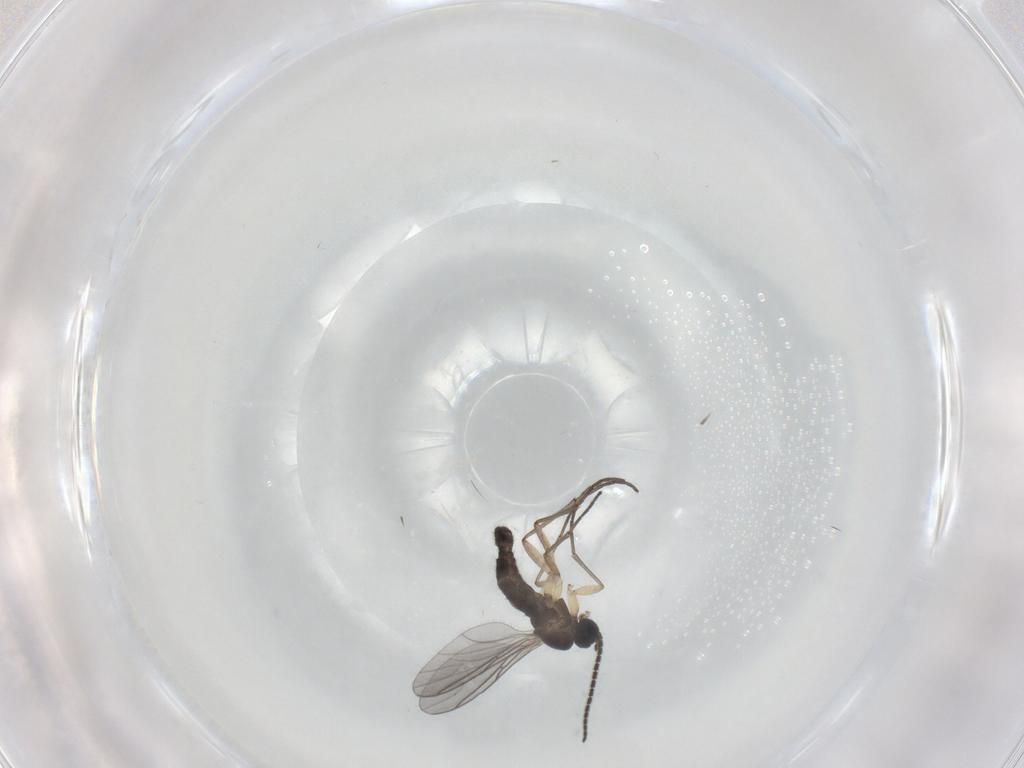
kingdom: Animalia
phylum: Arthropoda
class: Insecta
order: Diptera
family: Sciaridae
